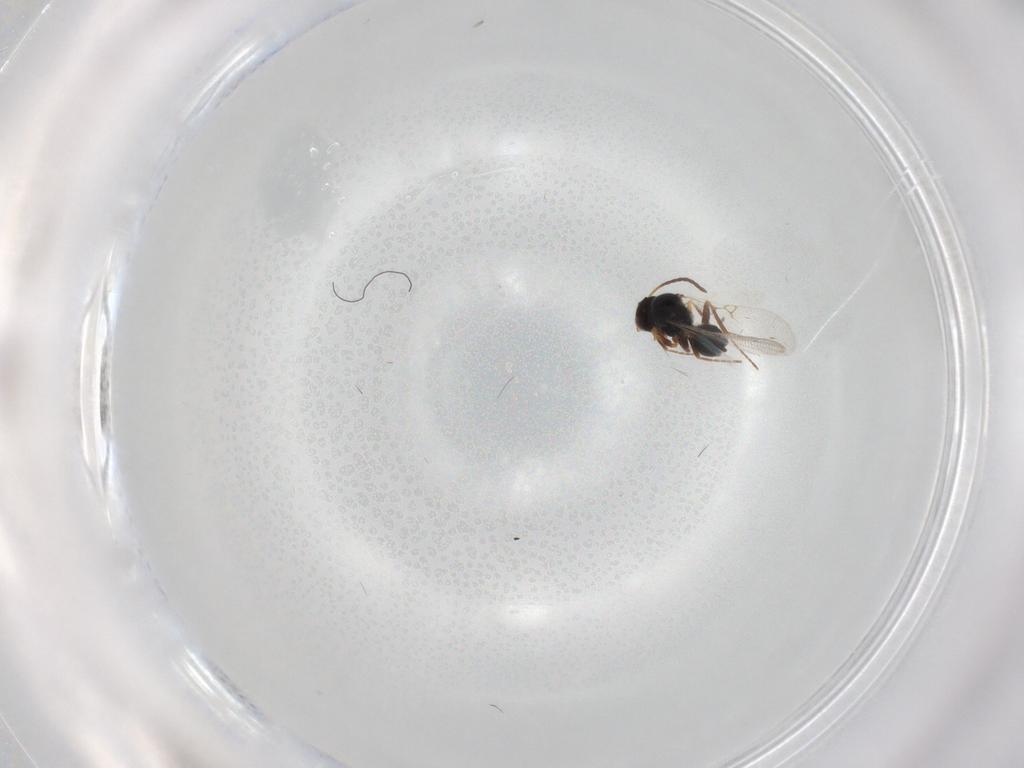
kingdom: Animalia
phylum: Arthropoda
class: Insecta
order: Hymenoptera
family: Figitidae
